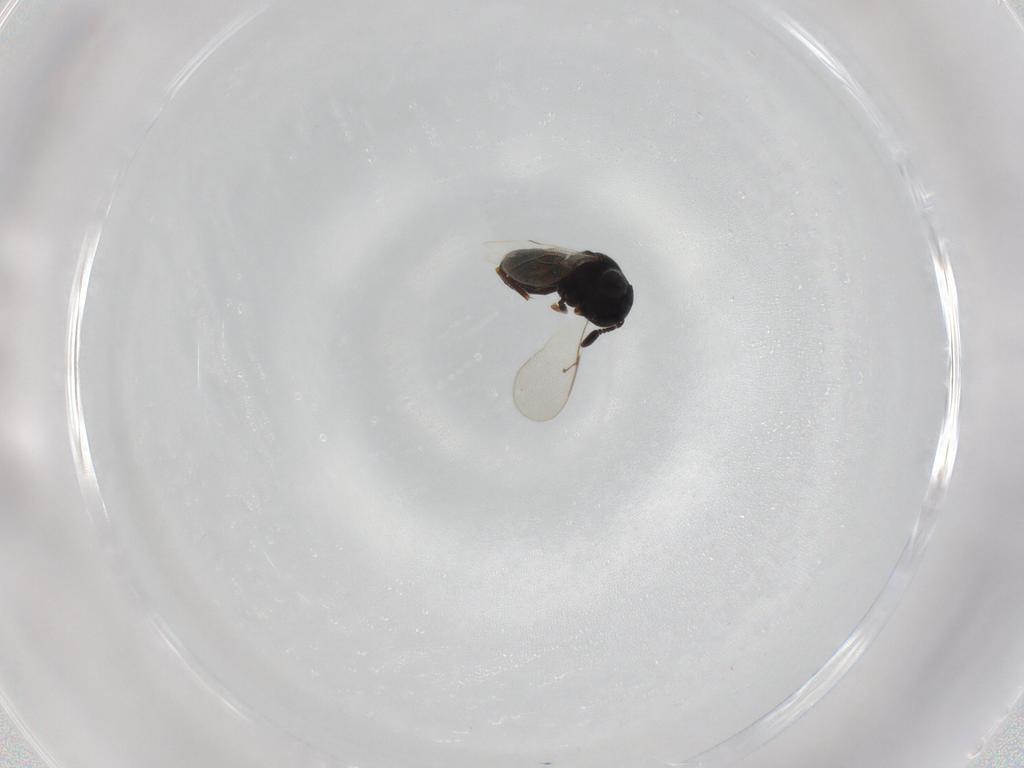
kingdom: Animalia
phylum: Arthropoda
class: Insecta
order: Hymenoptera
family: Scelionidae
